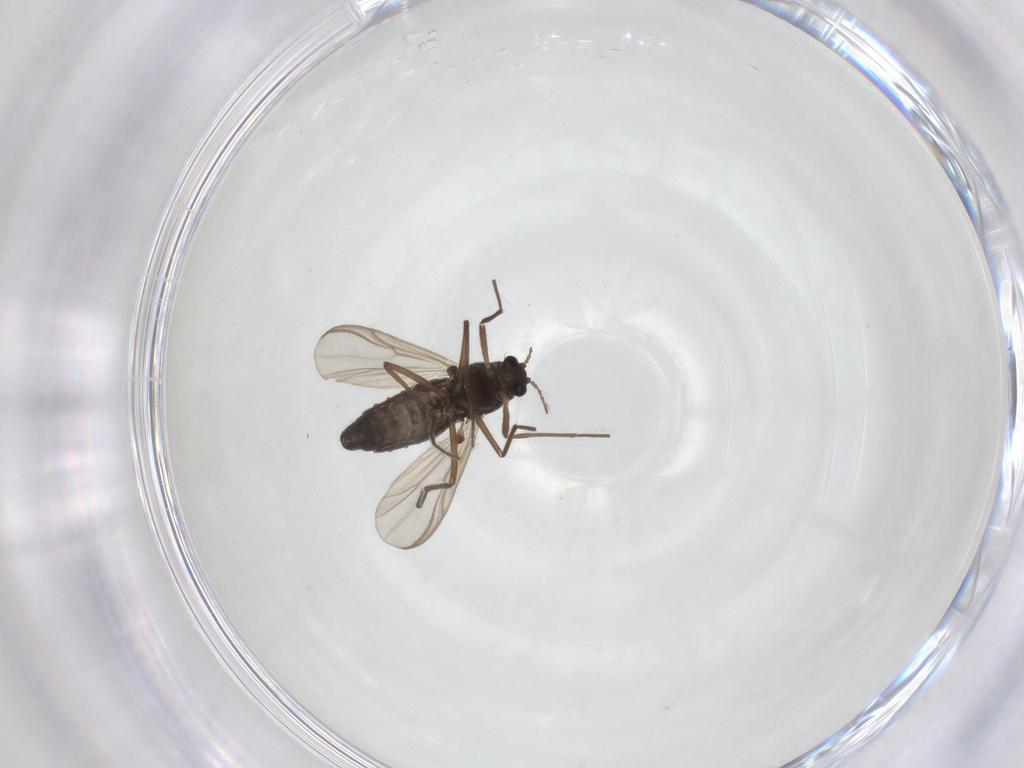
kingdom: Animalia
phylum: Arthropoda
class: Insecta
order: Diptera
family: Chironomidae
